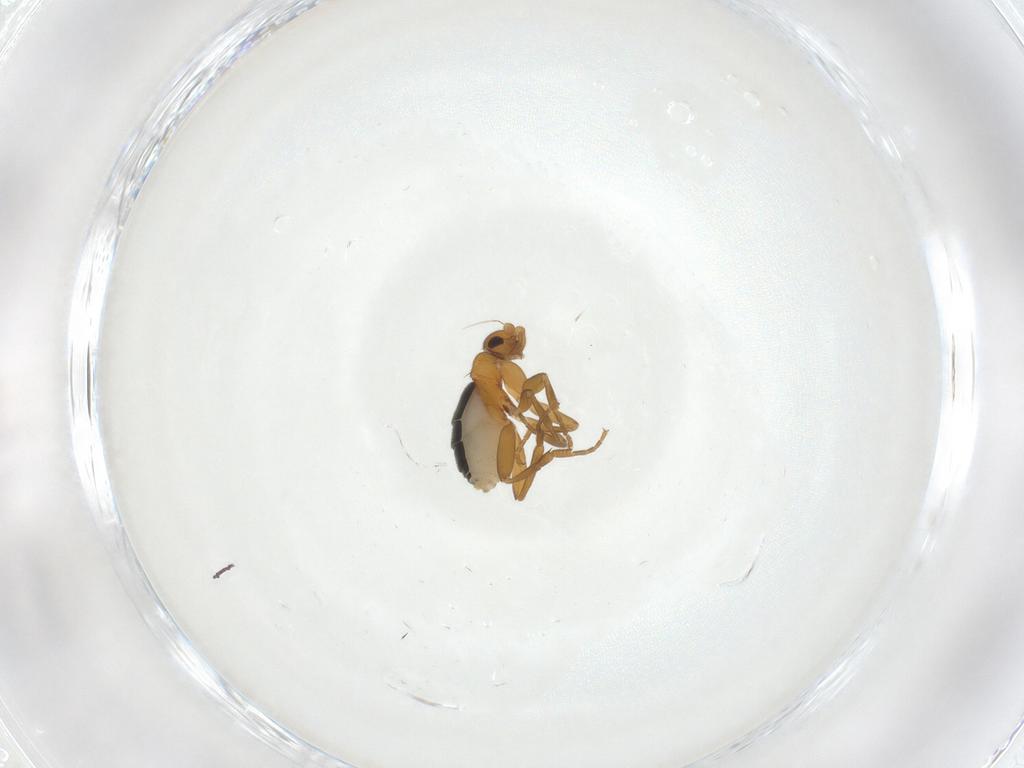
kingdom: Animalia
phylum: Arthropoda
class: Insecta
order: Diptera
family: Phoridae
